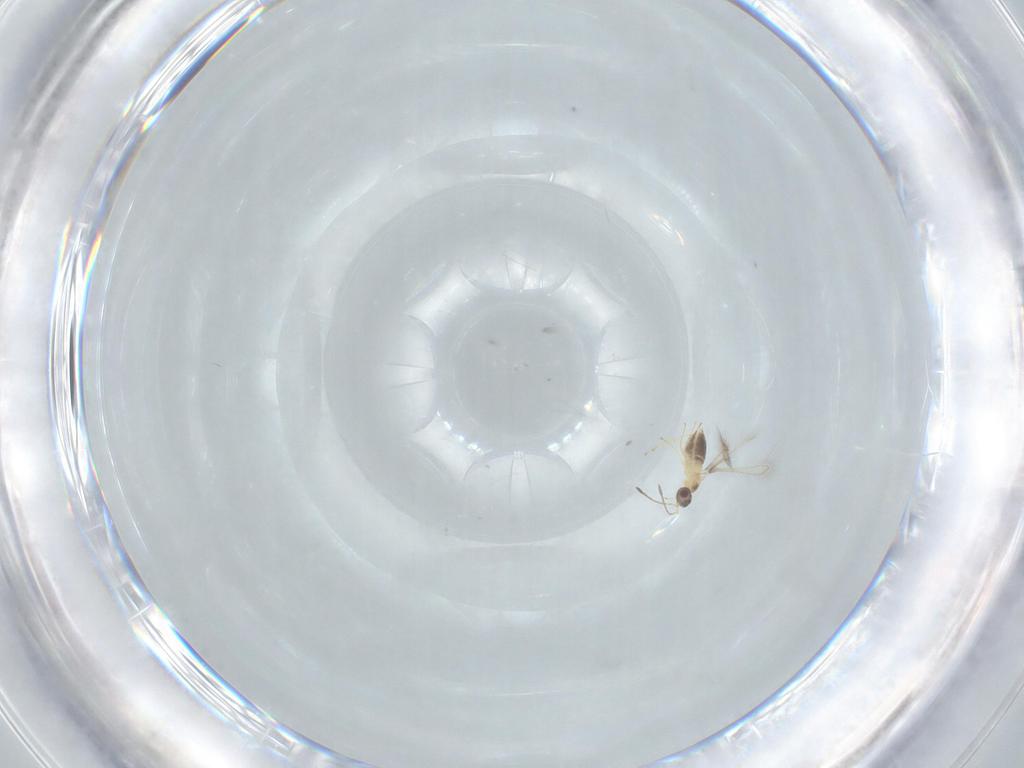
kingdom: Animalia
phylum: Arthropoda
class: Insecta
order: Hymenoptera
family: Mymaridae
